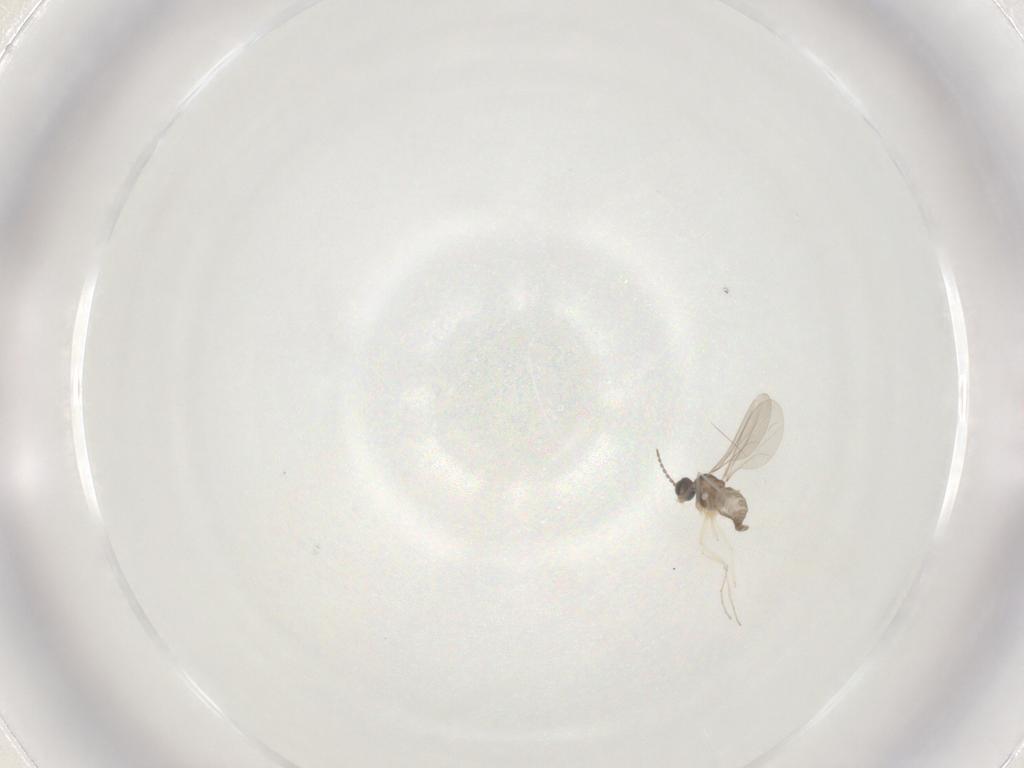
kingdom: Animalia
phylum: Arthropoda
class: Insecta
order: Diptera
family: Cecidomyiidae
